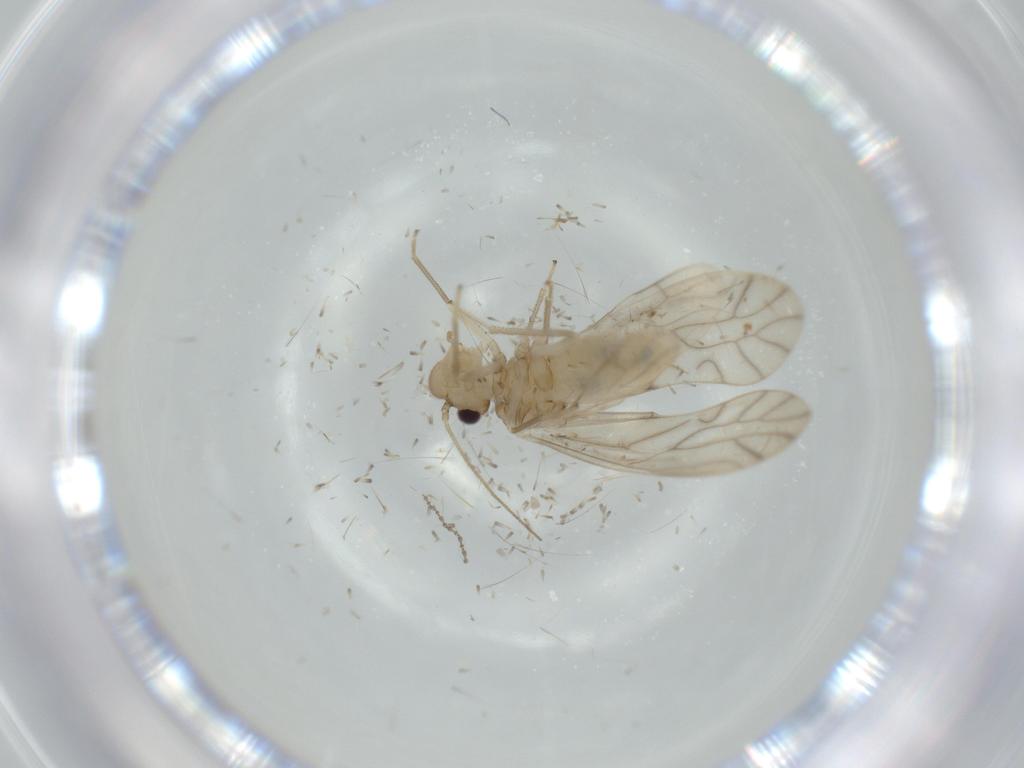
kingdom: Animalia
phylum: Arthropoda
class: Insecta
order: Psocodea
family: Caeciliusidae
